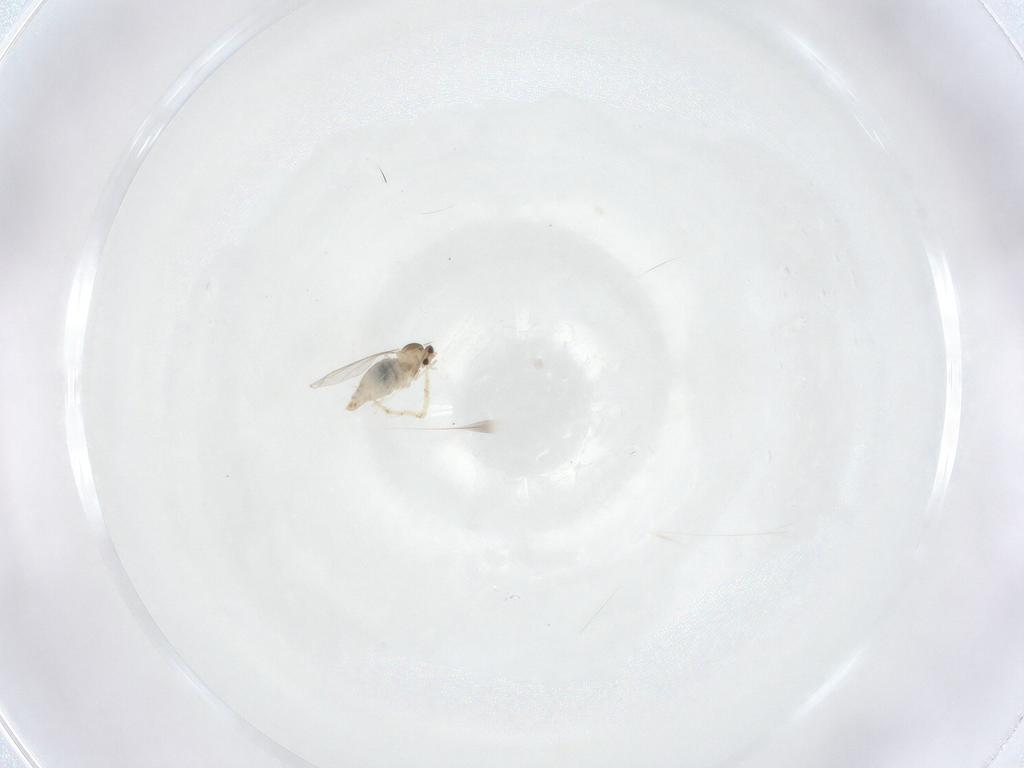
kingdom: Animalia
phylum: Arthropoda
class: Insecta
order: Diptera
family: Cecidomyiidae
